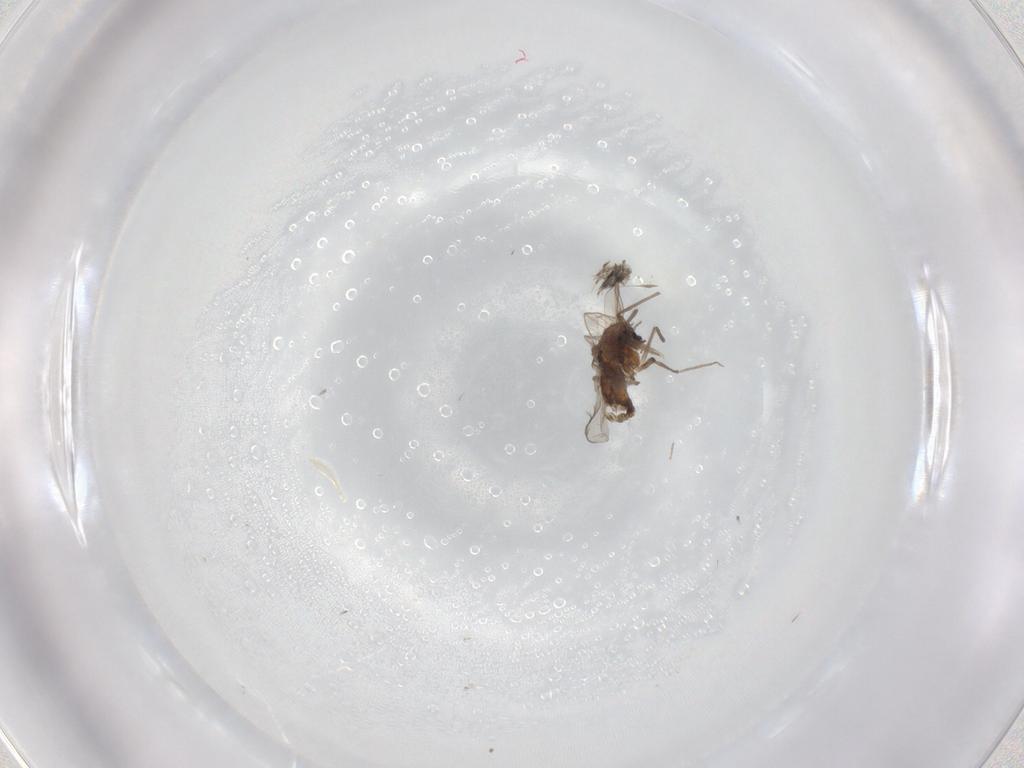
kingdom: Animalia
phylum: Arthropoda
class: Insecta
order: Diptera
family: Chironomidae
